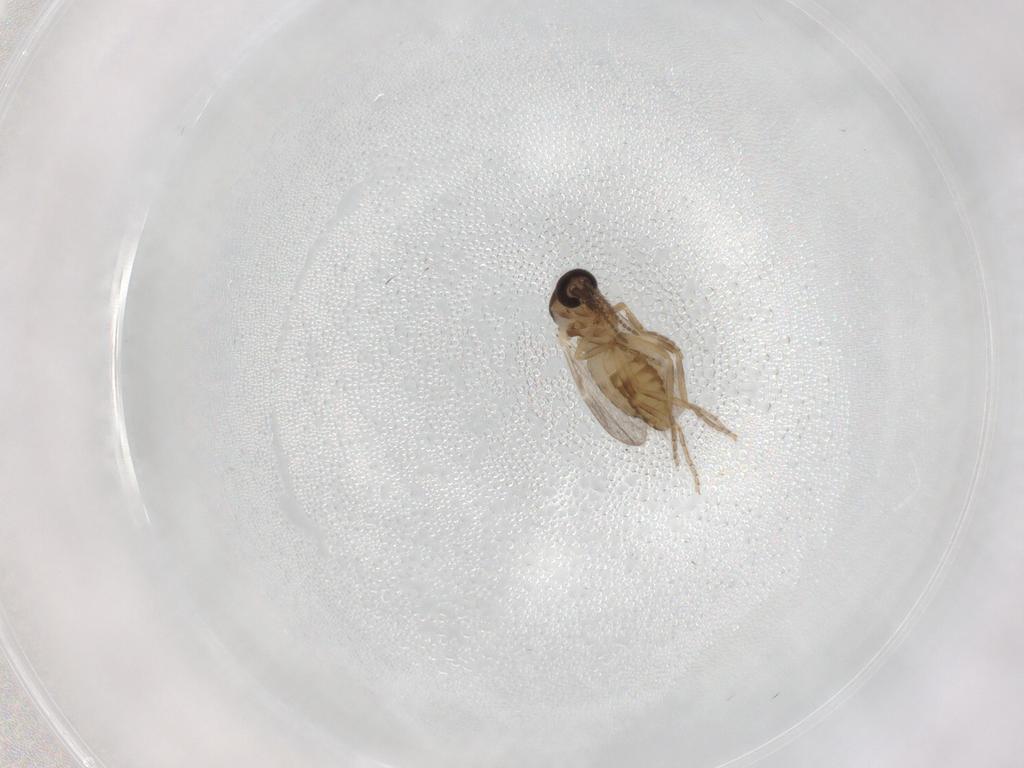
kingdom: Animalia
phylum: Arthropoda
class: Insecta
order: Diptera
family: Ceratopogonidae
